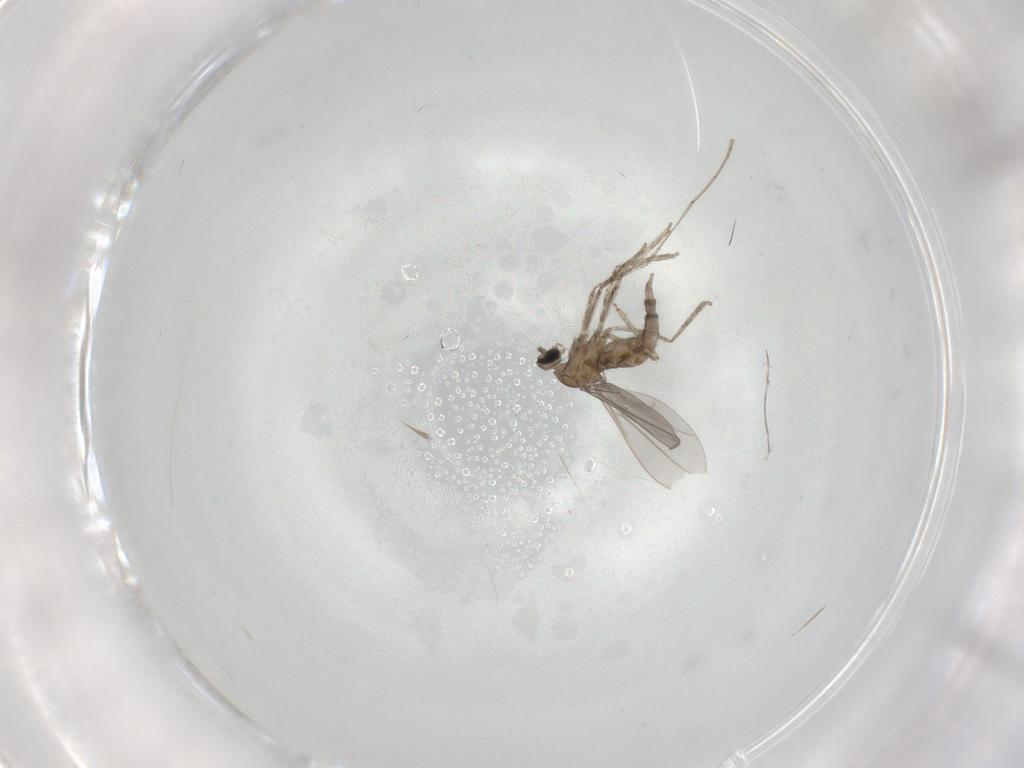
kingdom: Animalia
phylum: Arthropoda
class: Insecta
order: Diptera
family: Cecidomyiidae
